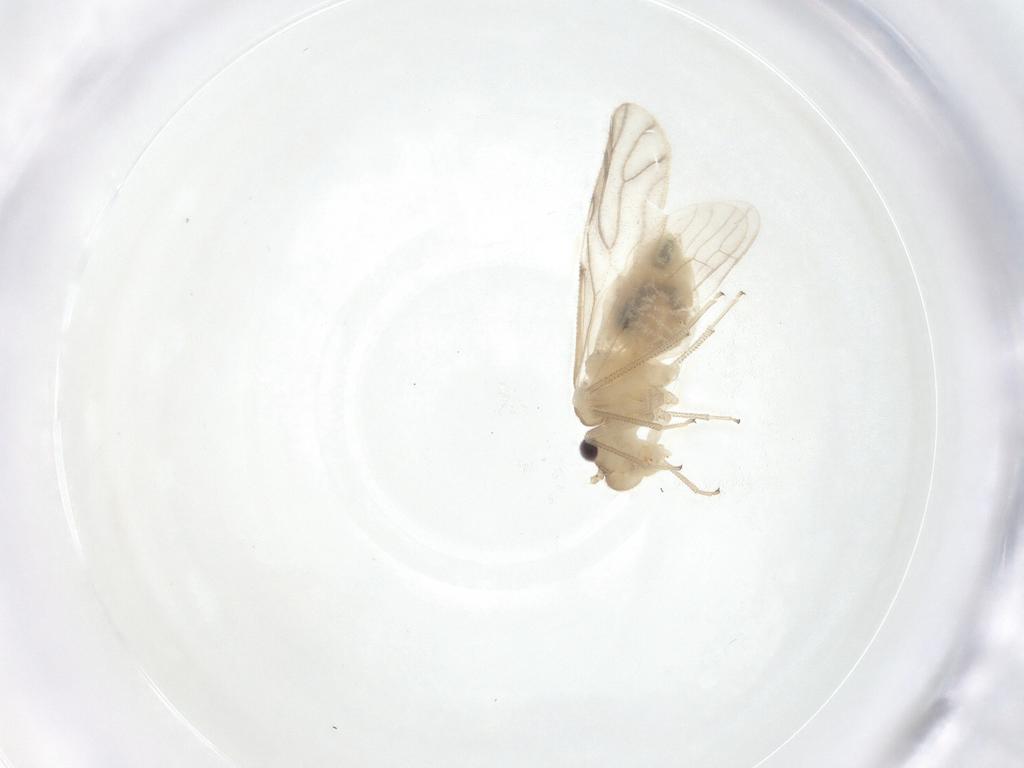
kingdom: Animalia
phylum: Arthropoda
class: Insecta
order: Psocodea
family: Caeciliusidae
